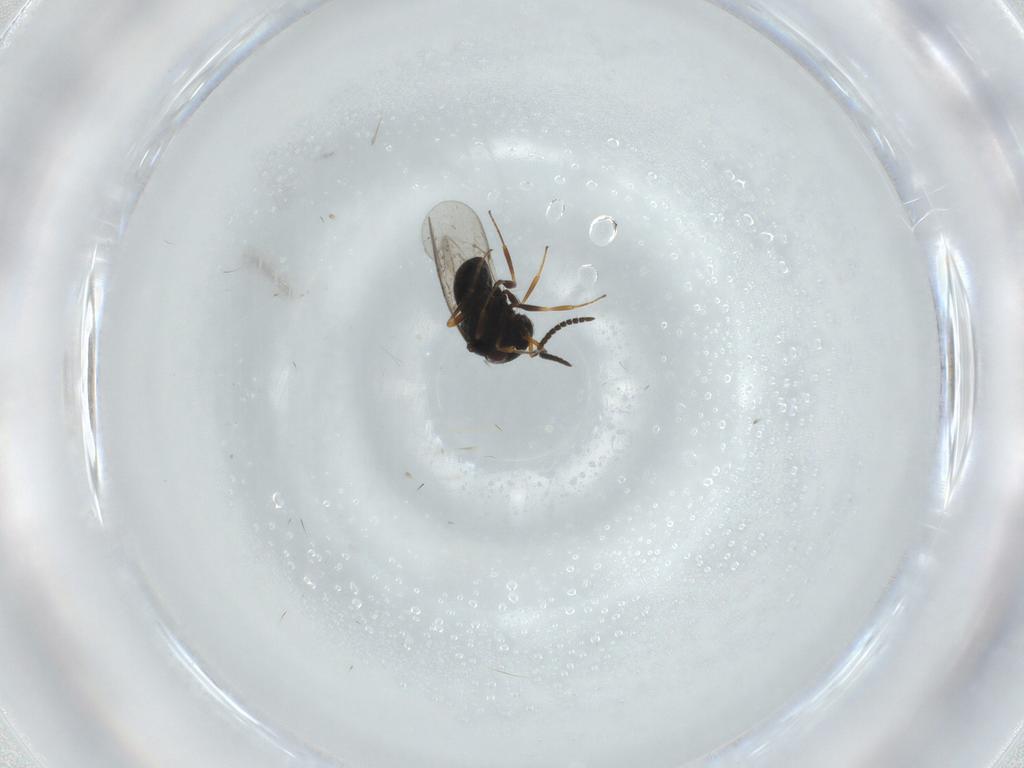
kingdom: Animalia
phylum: Arthropoda
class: Insecta
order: Hymenoptera
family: Scelionidae
